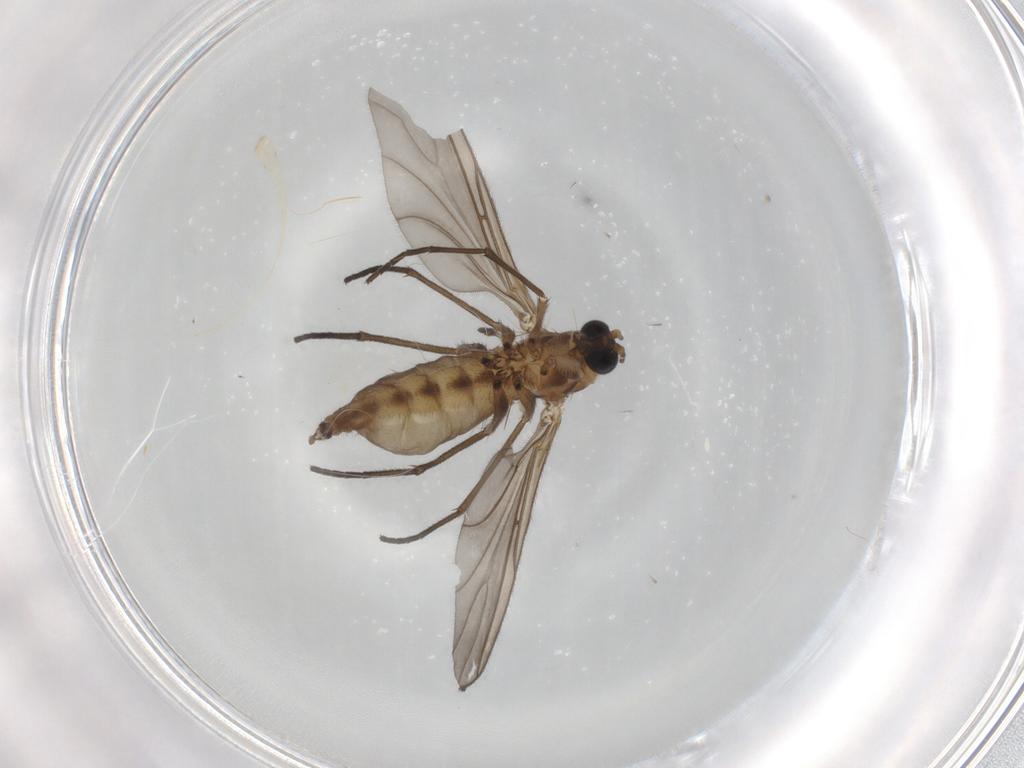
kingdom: Animalia
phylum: Arthropoda
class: Insecta
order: Diptera
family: Sciaridae
